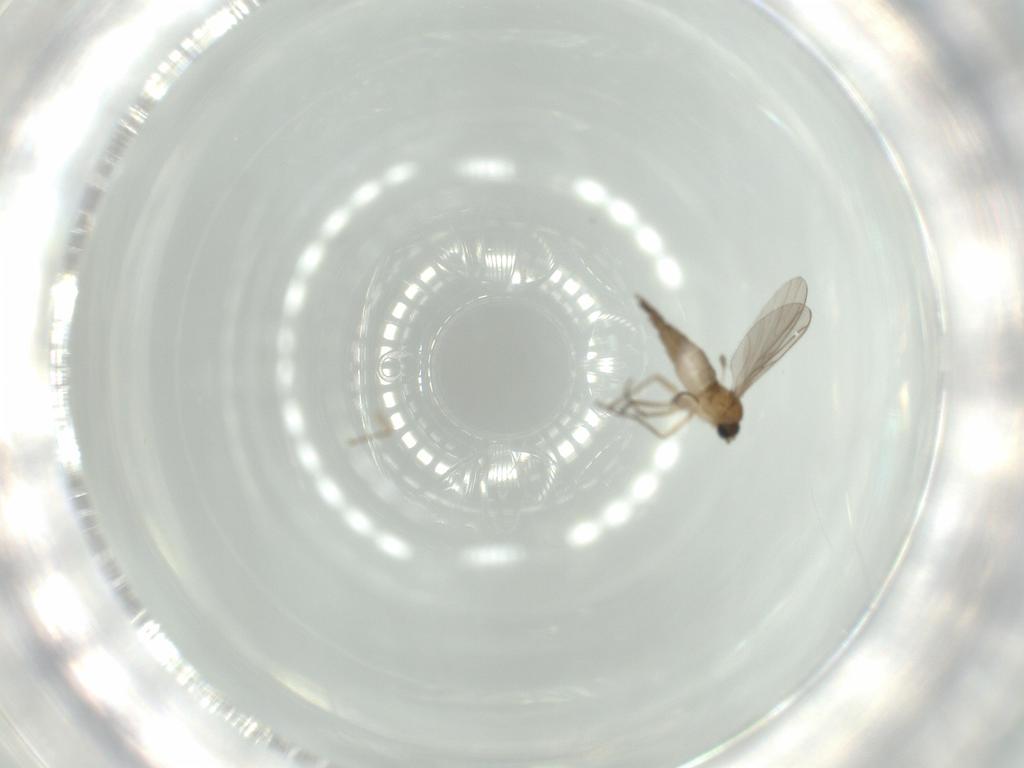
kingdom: Animalia
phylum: Arthropoda
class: Insecta
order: Diptera
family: Sciaridae
